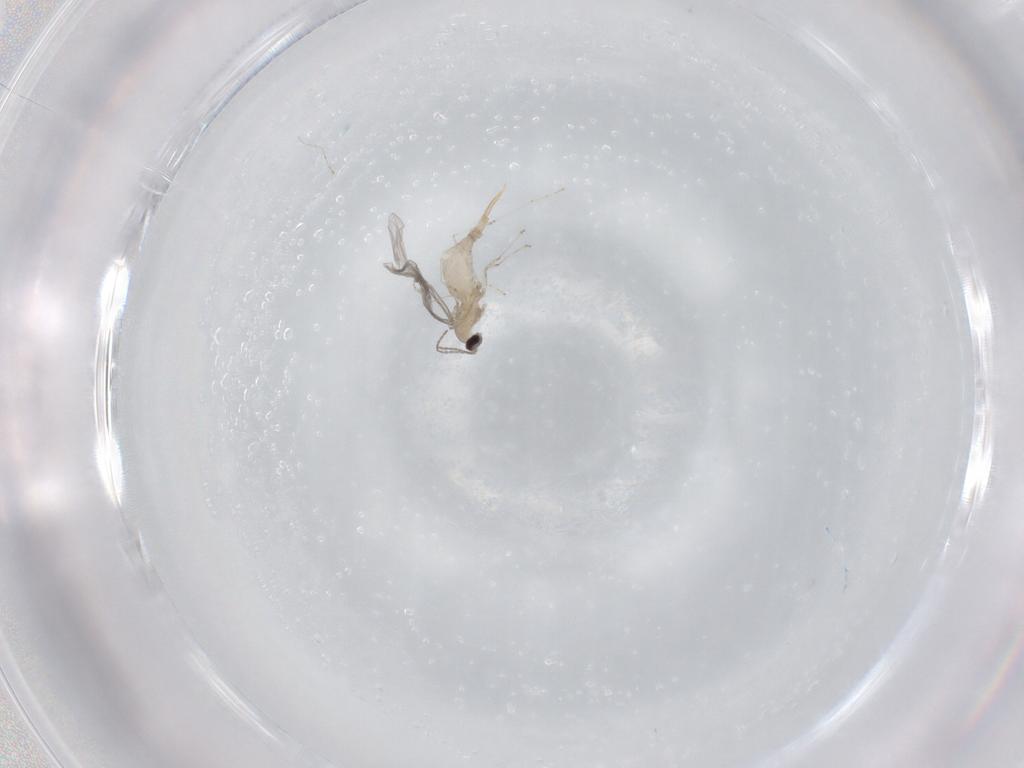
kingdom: Animalia
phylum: Arthropoda
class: Insecta
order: Diptera
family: Cecidomyiidae
